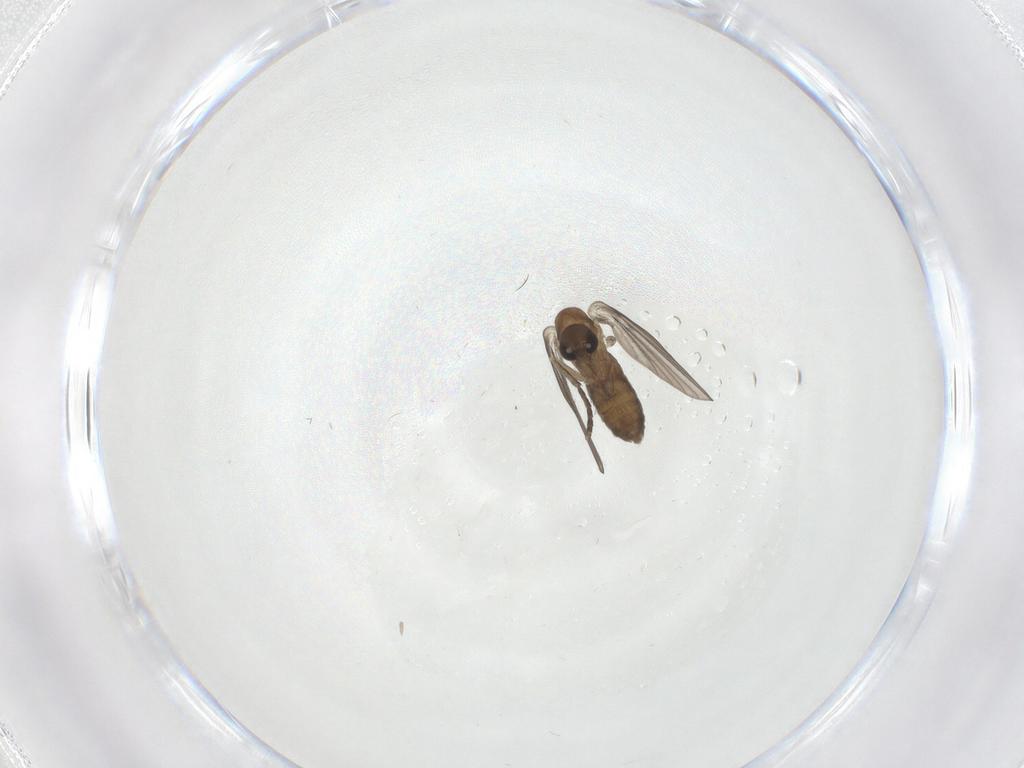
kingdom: Animalia
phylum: Arthropoda
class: Insecta
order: Diptera
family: Psychodidae
